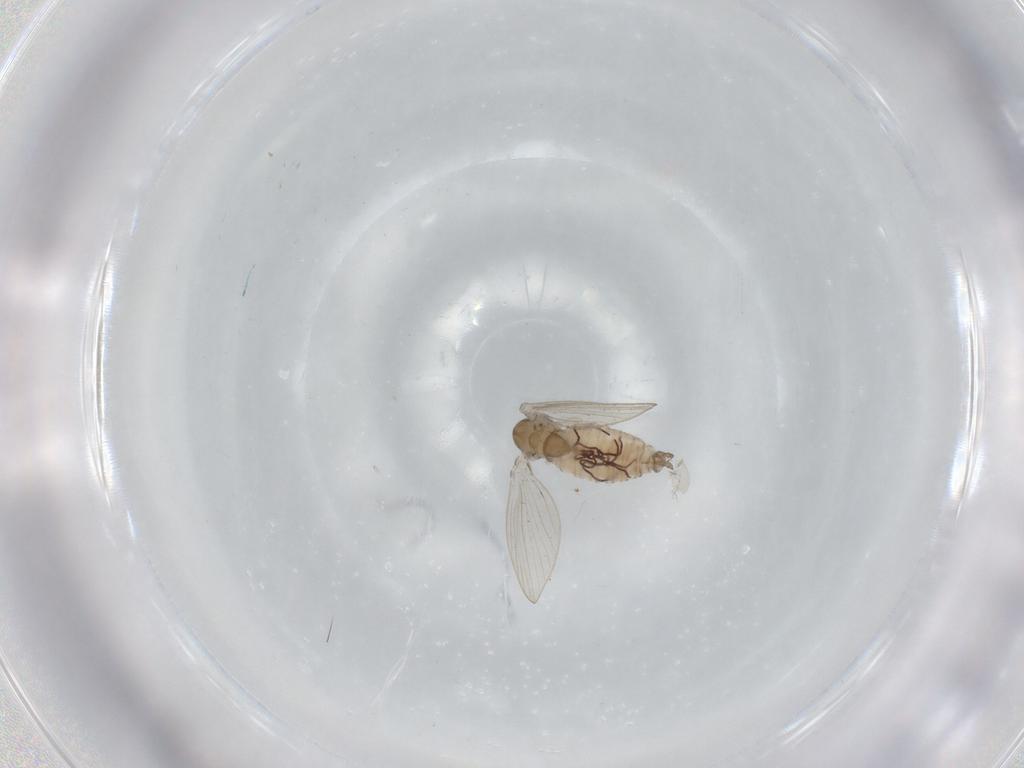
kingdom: Animalia
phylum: Arthropoda
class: Insecta
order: Diptera
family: Psychodidae
